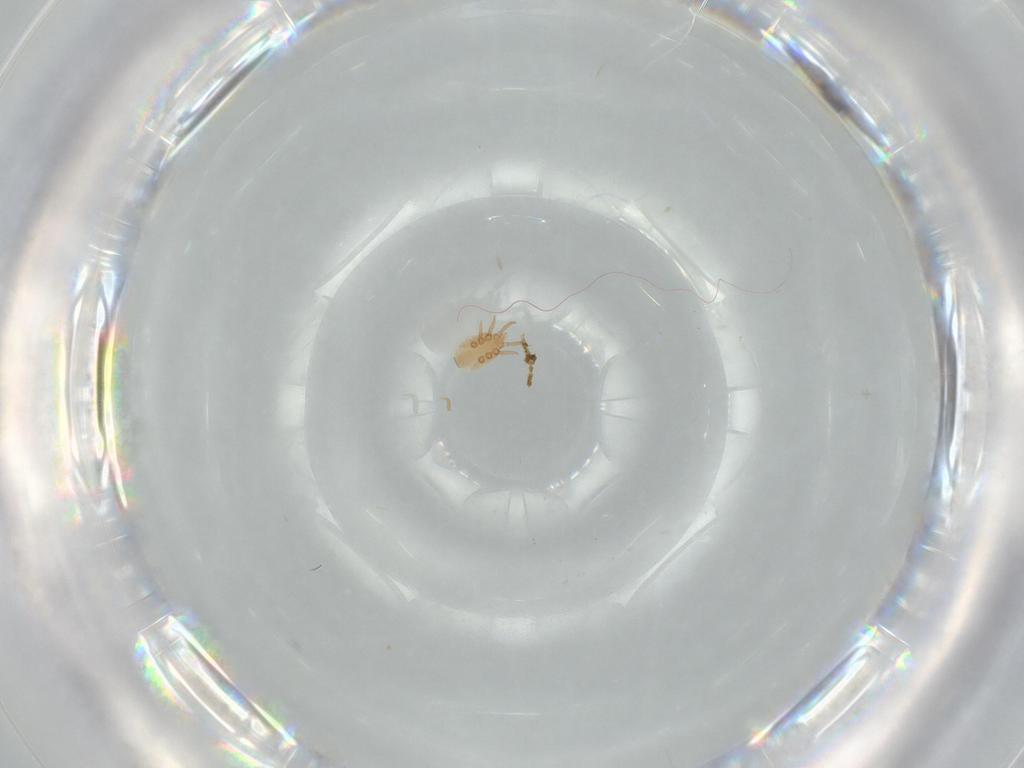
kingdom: Animalia
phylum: Arthropoda
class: Arachnida
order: Mesostigmata
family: Dinychidae
